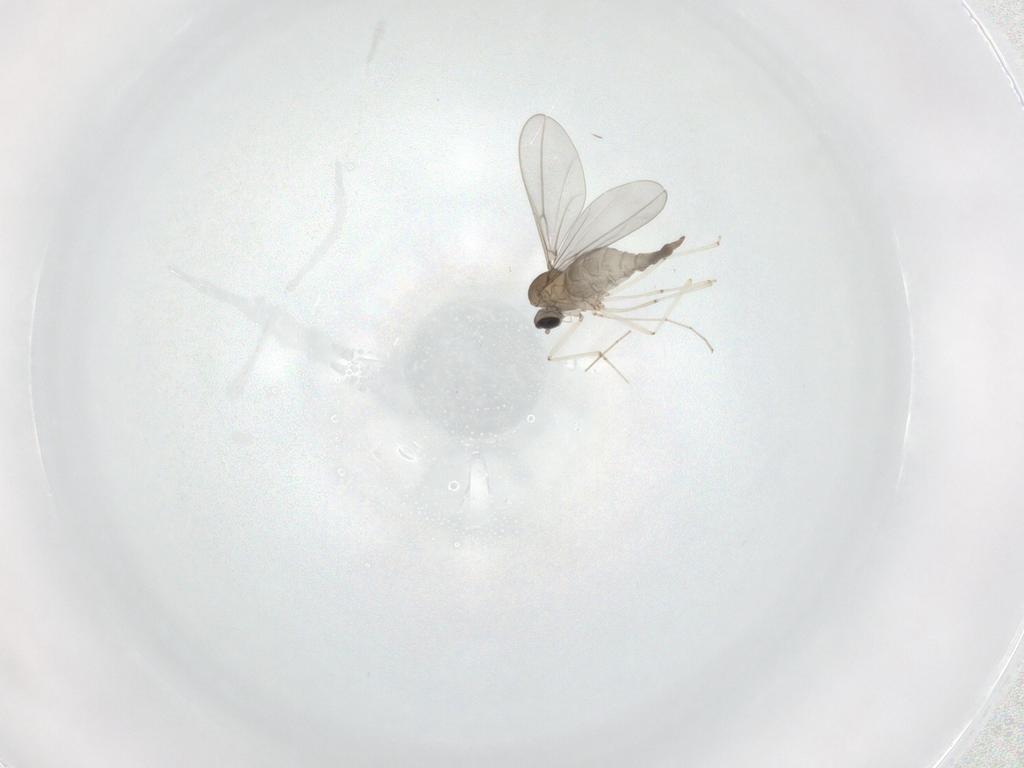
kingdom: Animalia
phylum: Arthropoda
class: Insecta
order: Diptera
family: Cecidomyiidae
